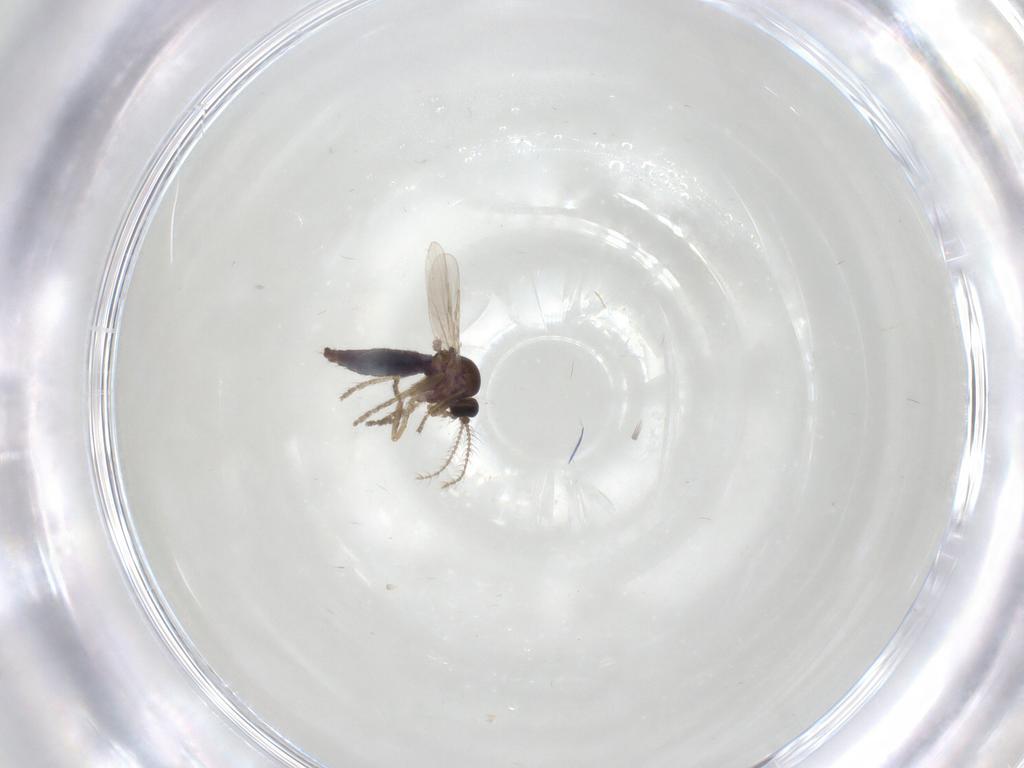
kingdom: Animalia
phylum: Arthropoda
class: Insecta
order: Diptera
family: Ceratopogonidae
